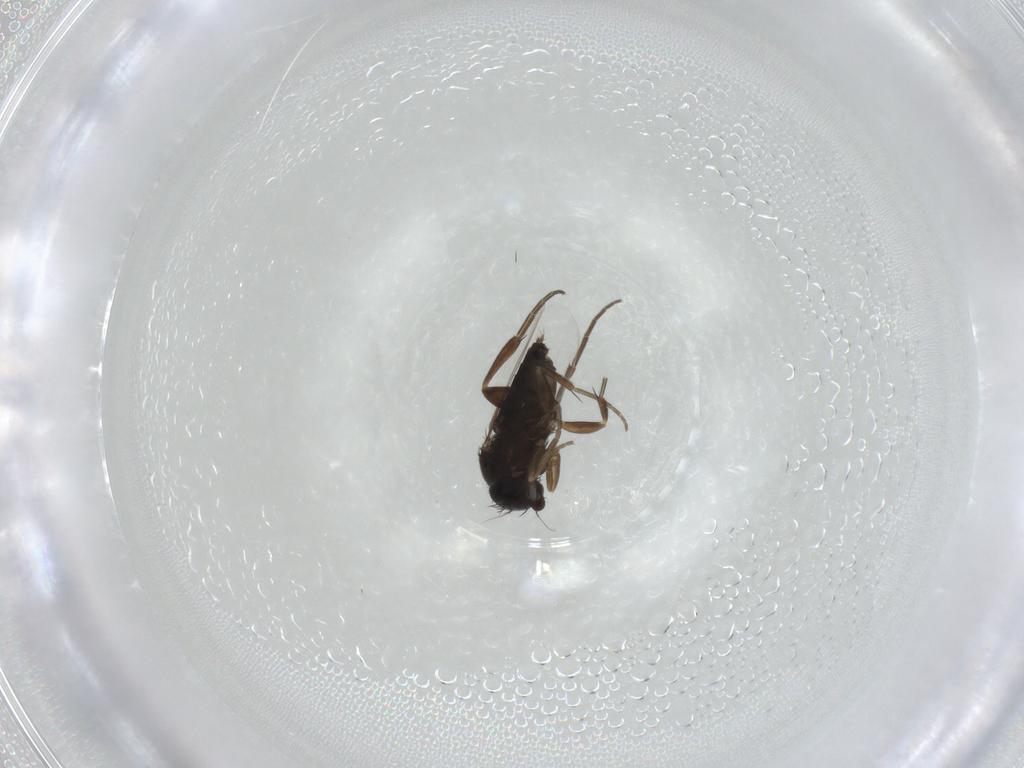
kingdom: Animalia
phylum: Arthropoda
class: Insecta
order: Diptera
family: Phoridae
